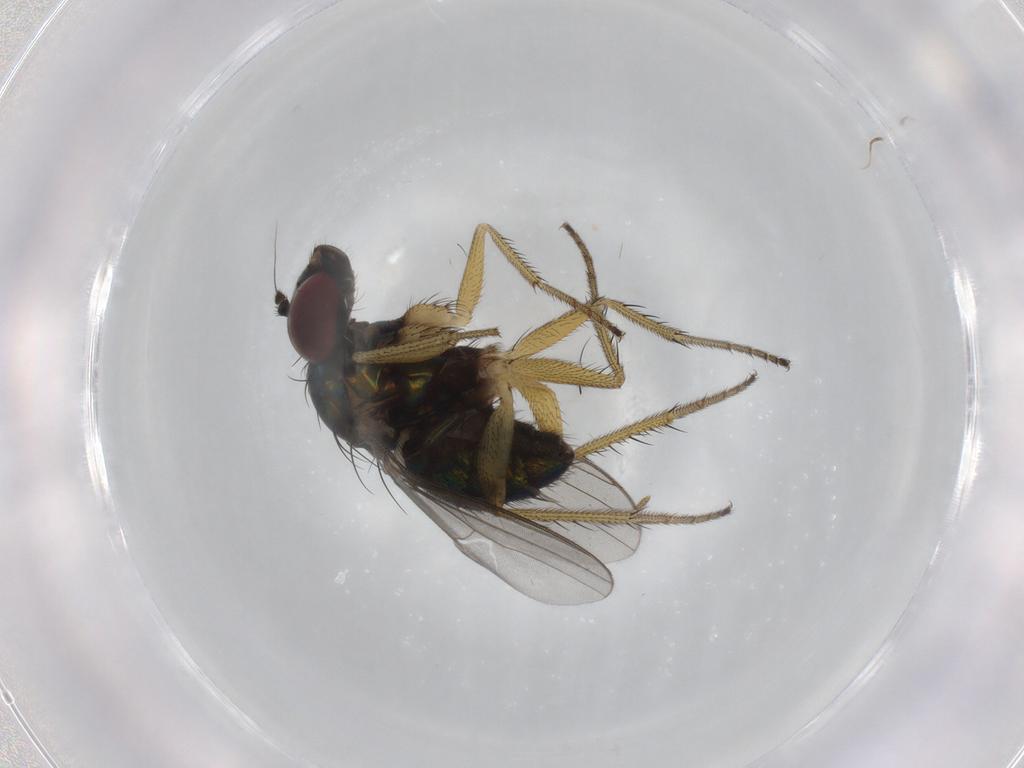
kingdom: Animalia
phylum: Arthropoda
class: Insecta
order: Diptera
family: Dolichopodidae
